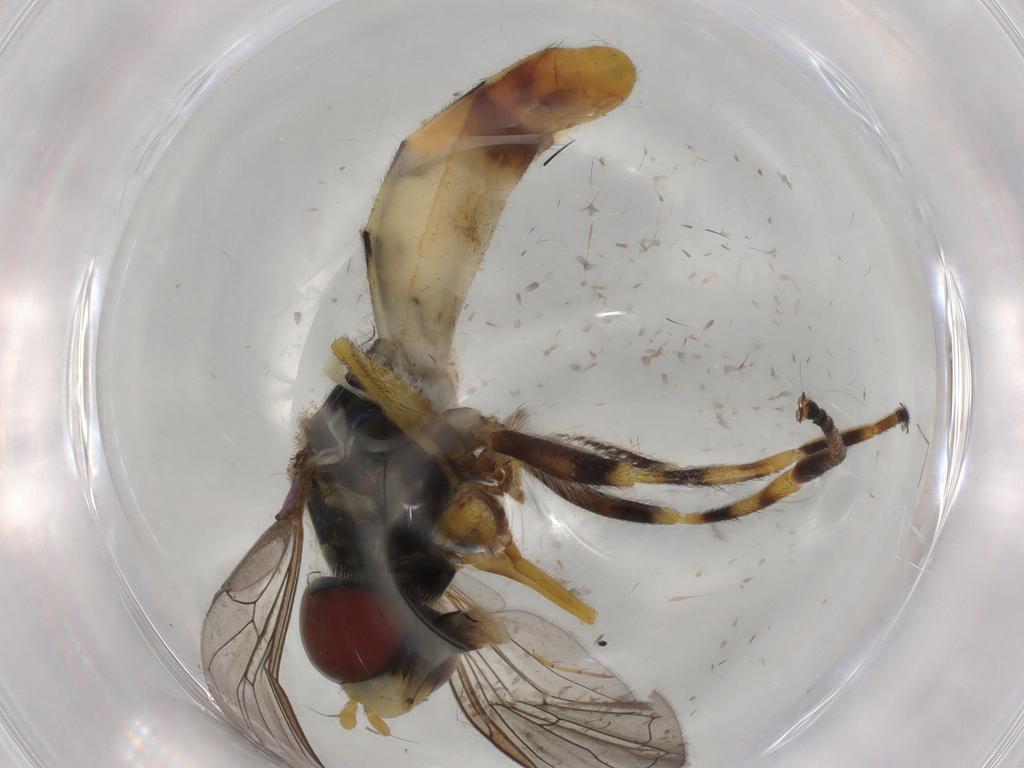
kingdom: Animalia
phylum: Arthropoda
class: Insecta
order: Diptera
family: Syrphidae
